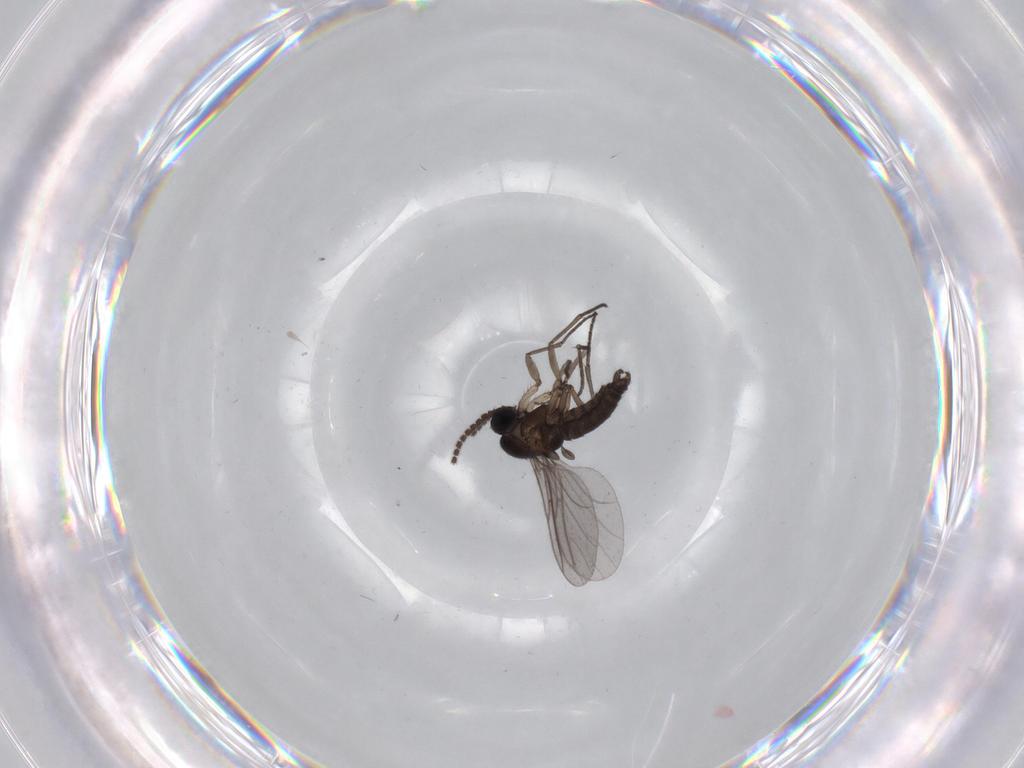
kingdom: Animalia
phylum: Arthropoda
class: Insecta
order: Diptera
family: Cecidomyiidae
